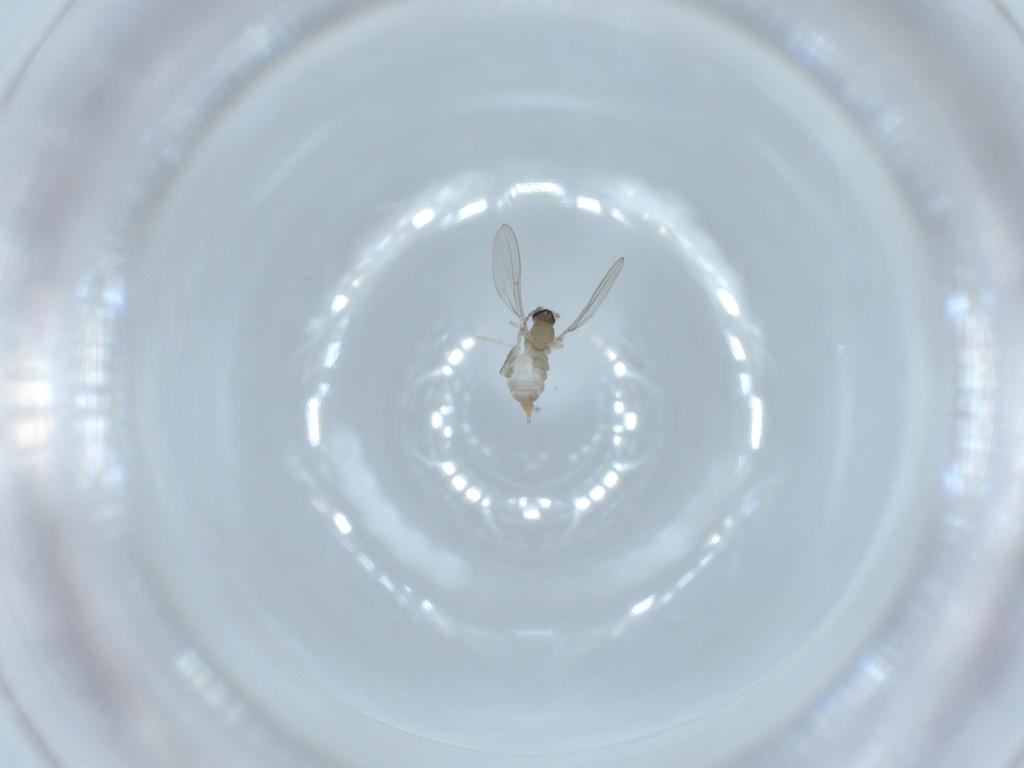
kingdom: Animalia
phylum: Arthropoda
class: Insecta
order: Diptera
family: Cecidomyiidae
